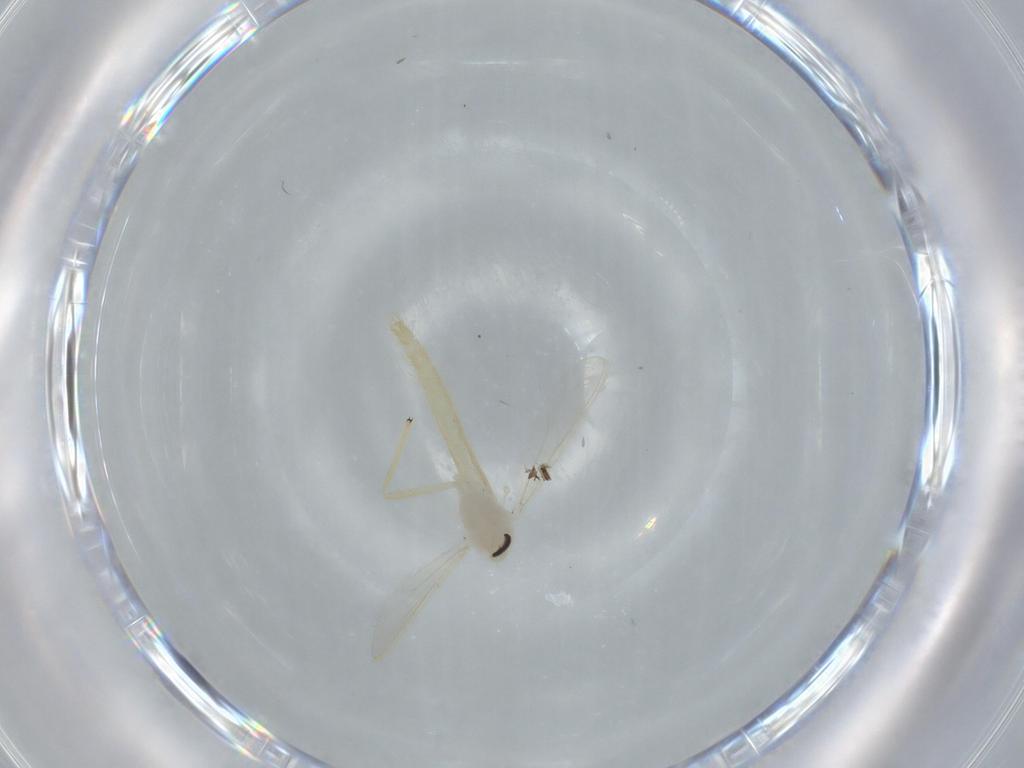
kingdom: Animalia
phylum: Arthropoda
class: Insecta
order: Diptera
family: Chironomidae
